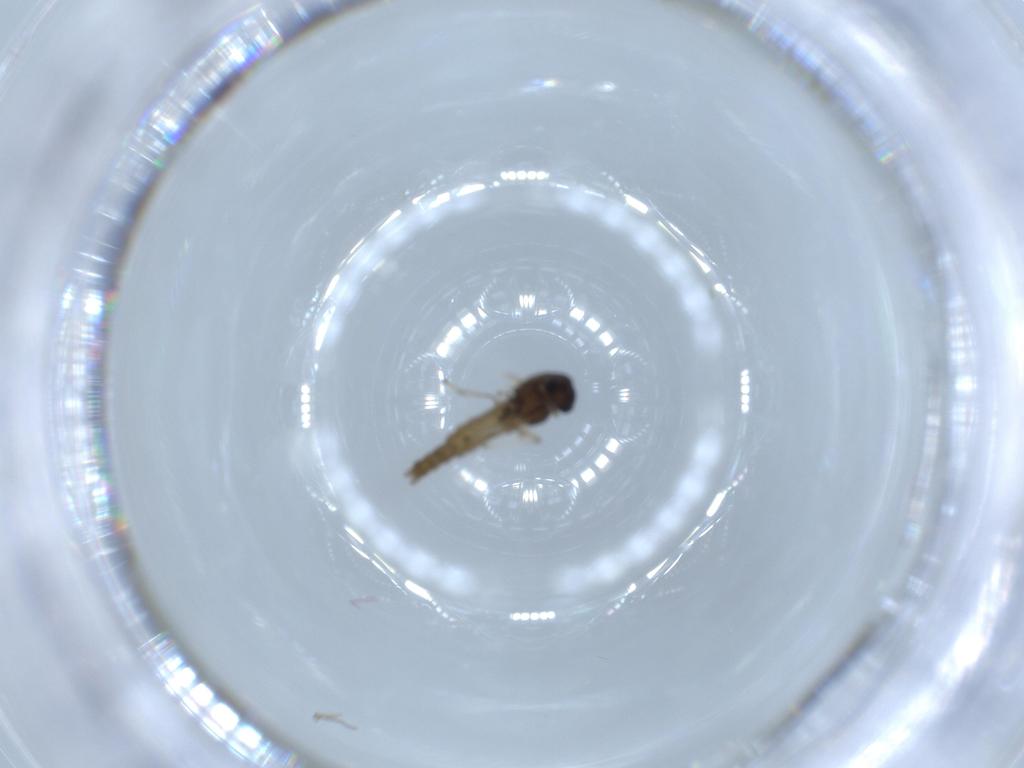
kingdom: Animalia
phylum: Arthropoda
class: Insecta
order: Diptera
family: Chironomidae
